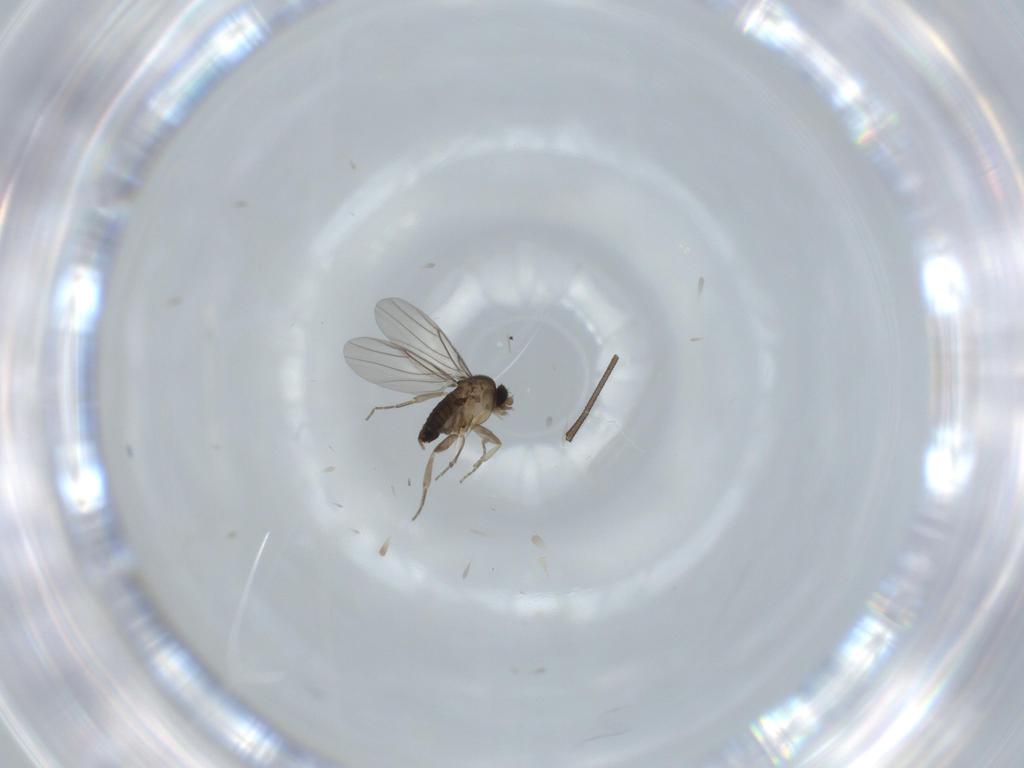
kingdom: Animalia
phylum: Arthropoda
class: Insecta
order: Diptera
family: Phoridae
